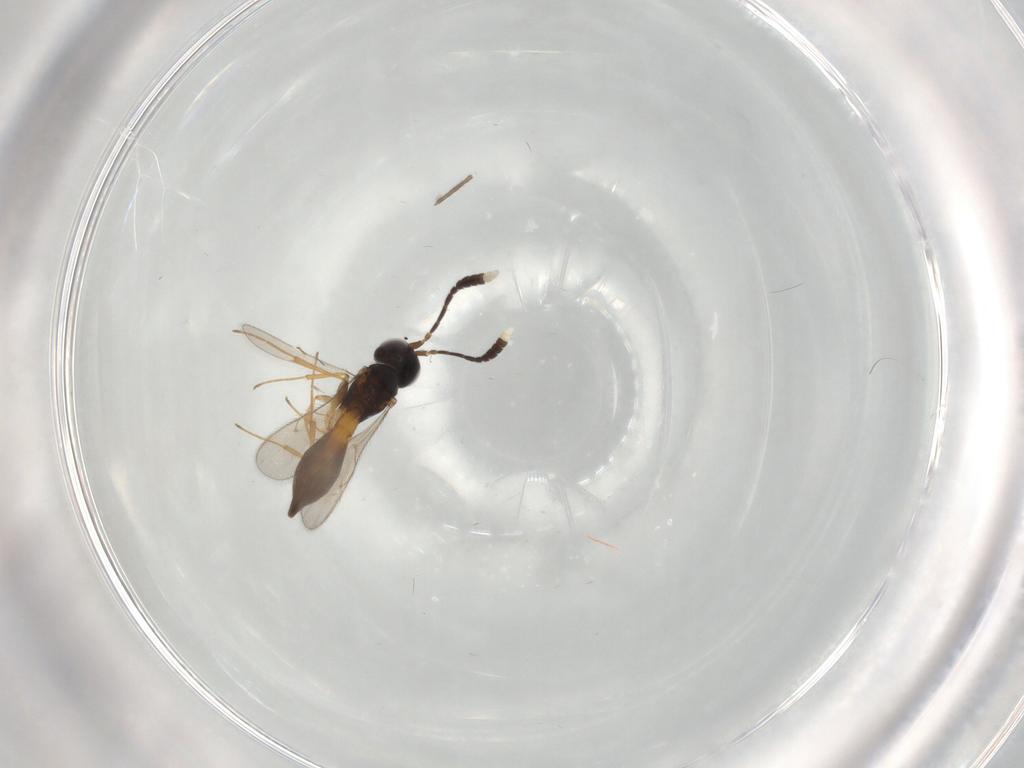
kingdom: Animalia
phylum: Arthropoda
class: Insecta
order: Hymenoptera
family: Scelionidae
